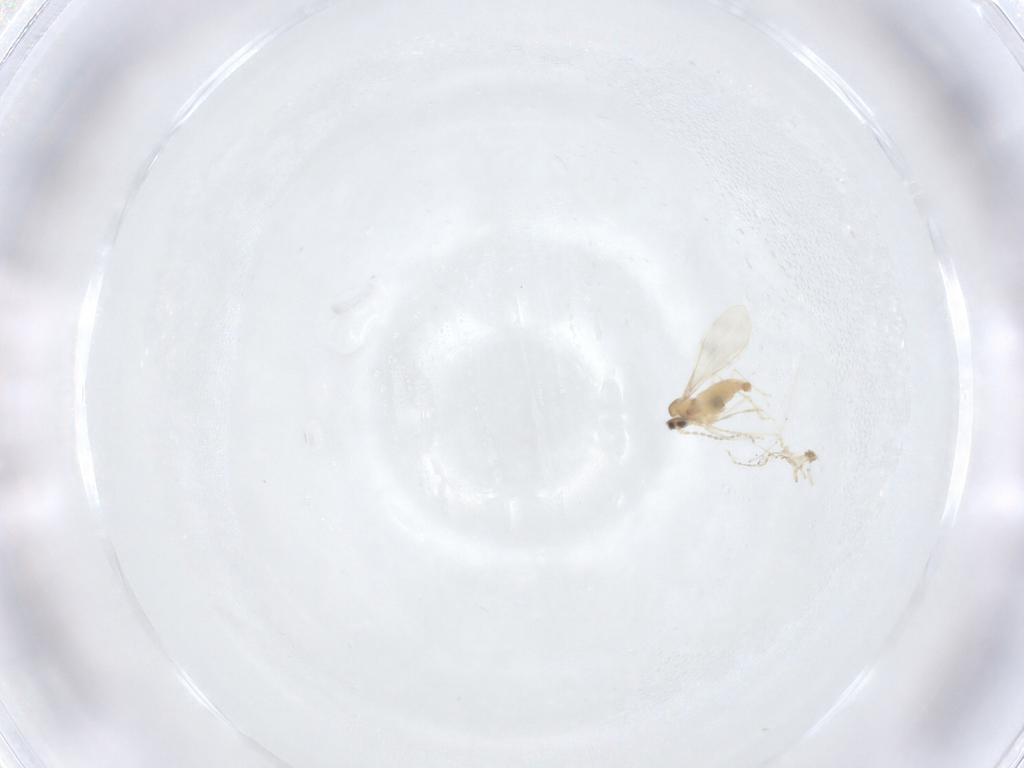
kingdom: Animalia
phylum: Arthropoda
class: Insecta
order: Diptera
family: Cecidomyiidae
